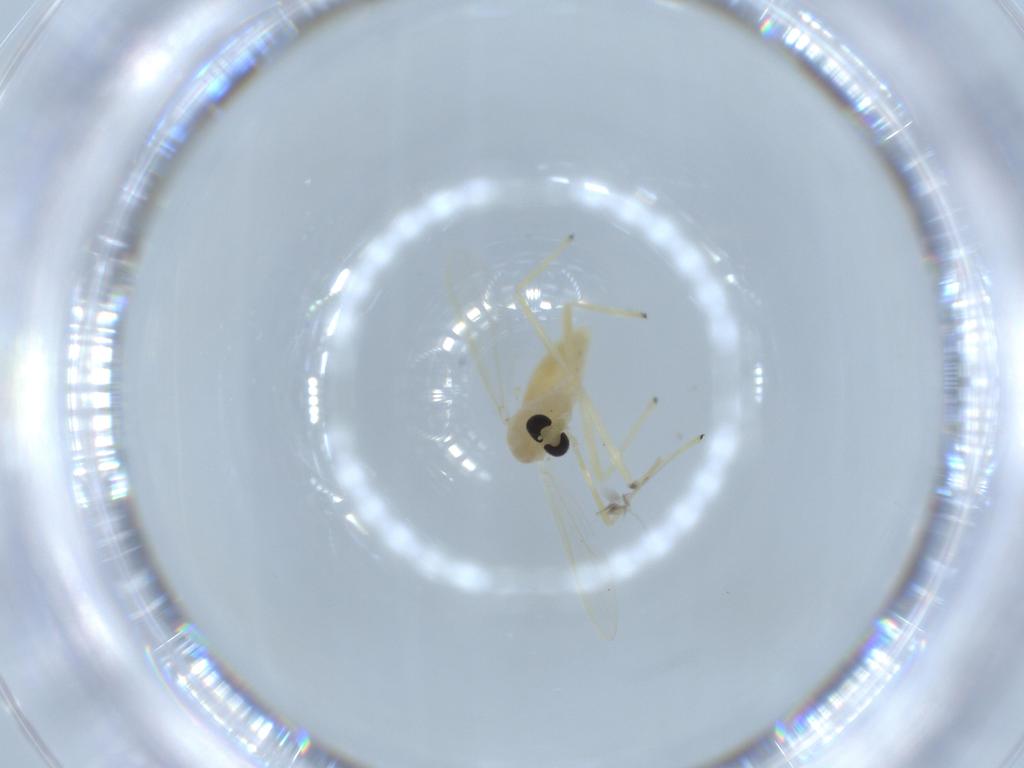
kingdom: Animalia
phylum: Arthropoda
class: Insecta
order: Diptera
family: Chironomidae
